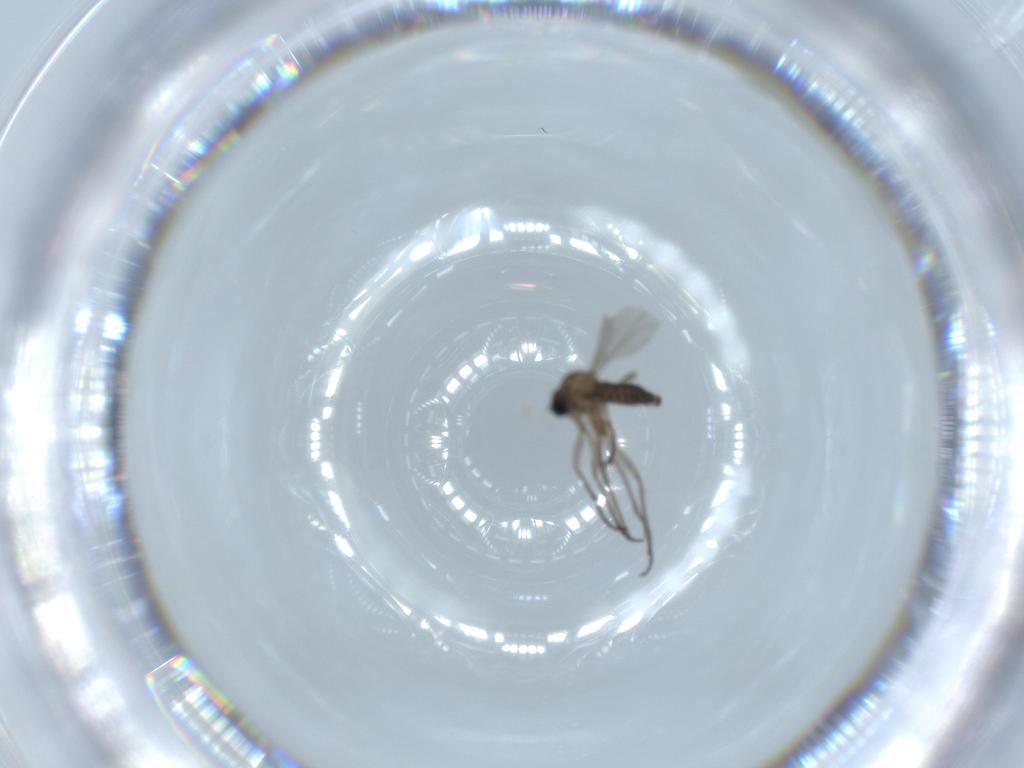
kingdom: Animalia
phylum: Arthropoda
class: Insecta
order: Diptera
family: Sciaridae
